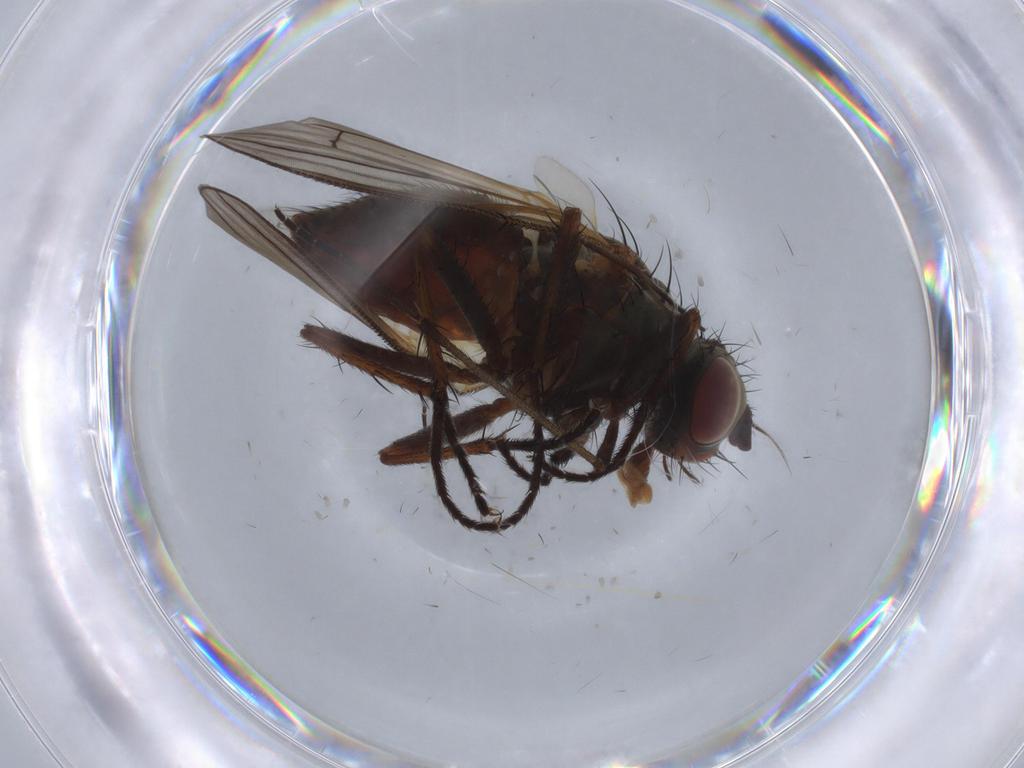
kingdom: Animalia
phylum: Arthropoda
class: Insecta
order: Diptera
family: Anthomyiidae
